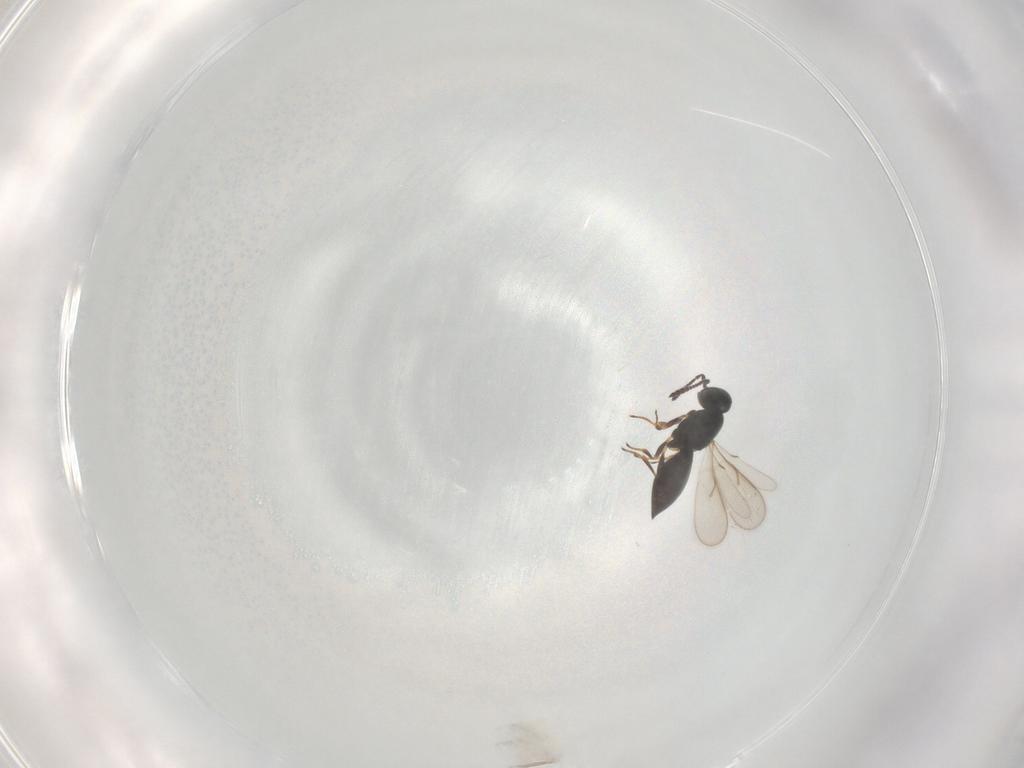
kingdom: Animalia
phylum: Arthropoda
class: Insecta
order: Hymenoptera
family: Scelionidae
